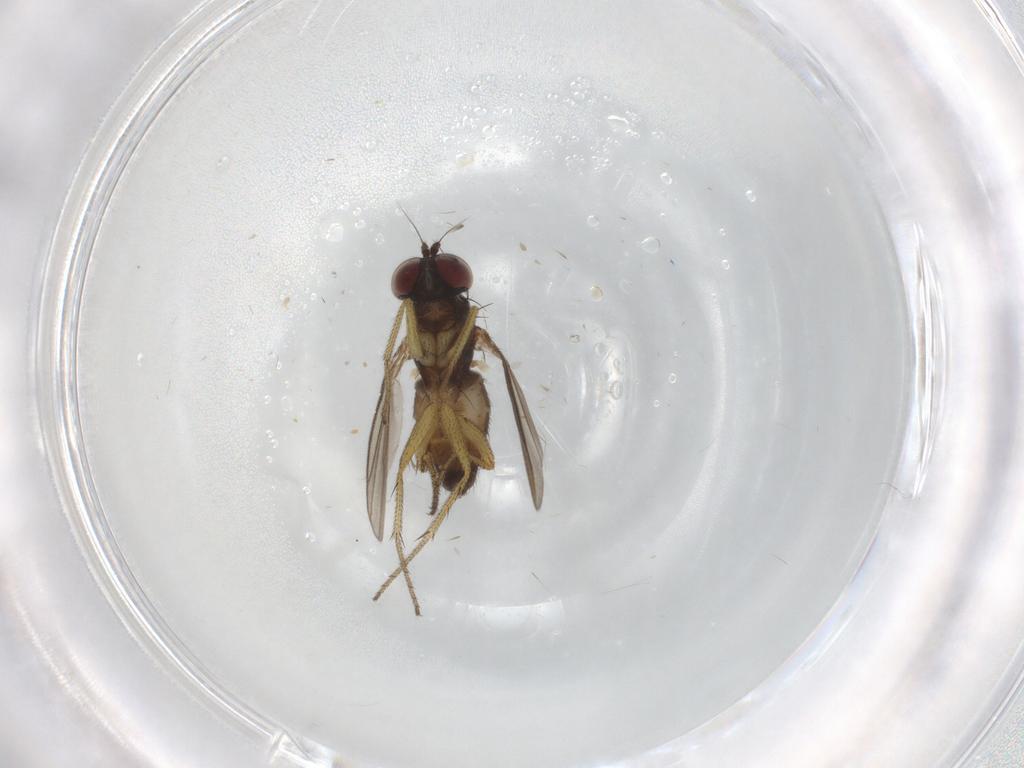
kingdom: Animalia
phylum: Arthropoda
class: Insecta
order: Diptera
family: Dolichopodidae
